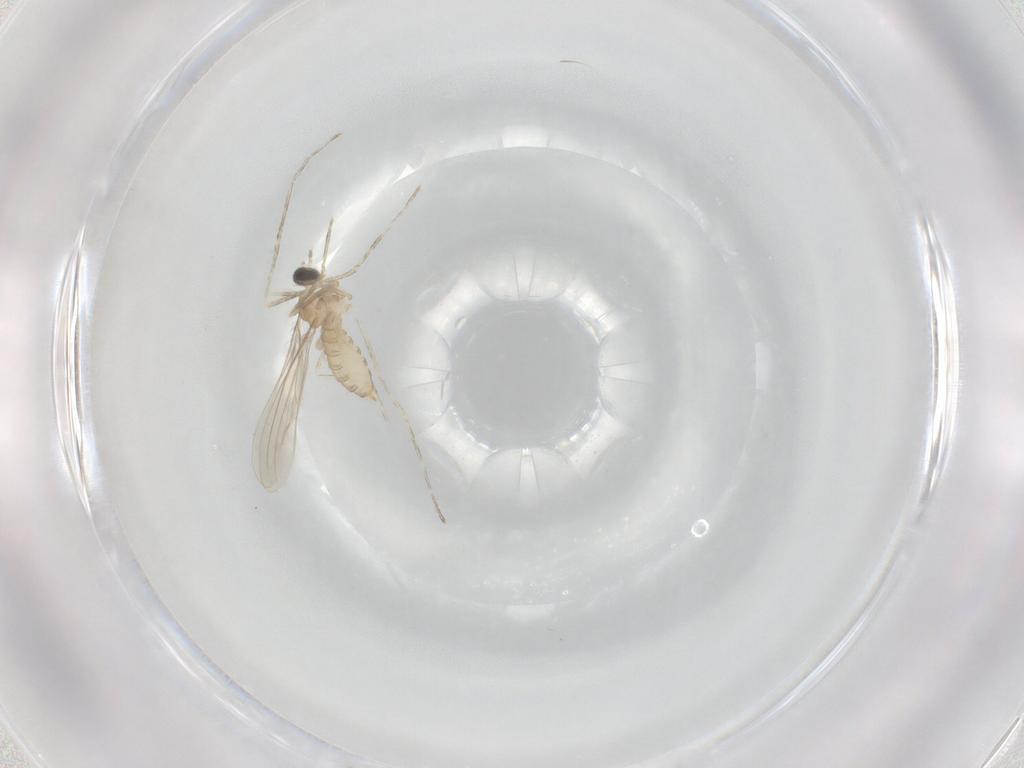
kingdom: Animalia
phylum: Arthropoda
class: Insecta
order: Diptera
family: Cecidomyiidae
